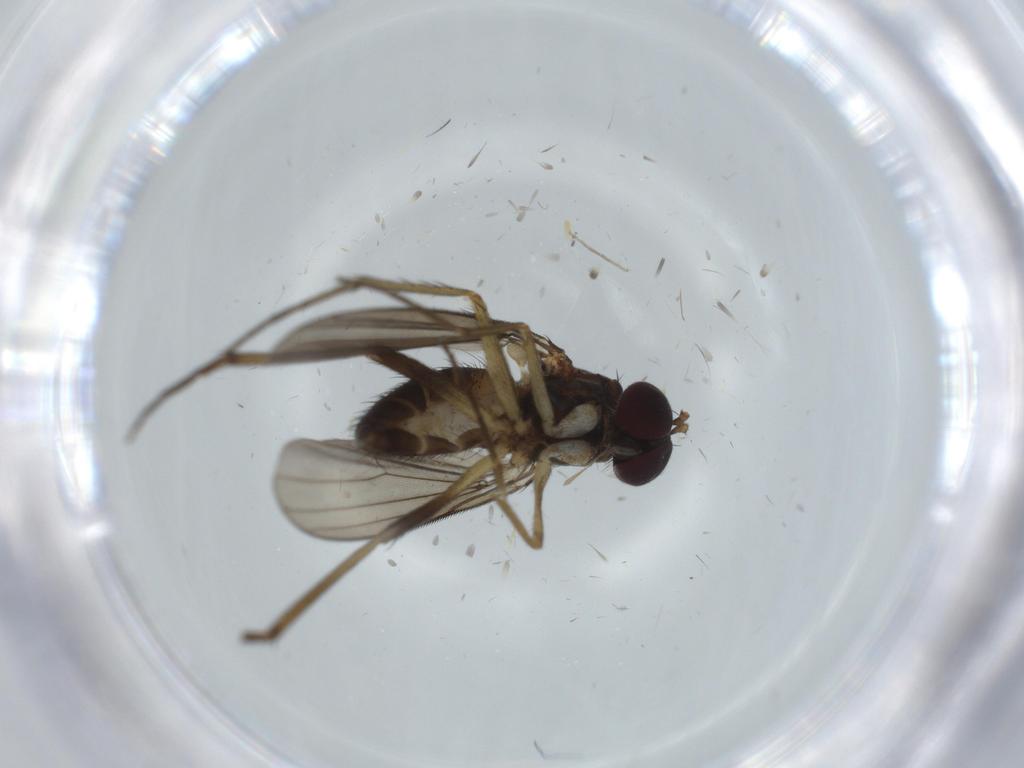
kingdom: Animalia
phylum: Arthropoda
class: Insecta
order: Diptera
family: Dolichopodidae
